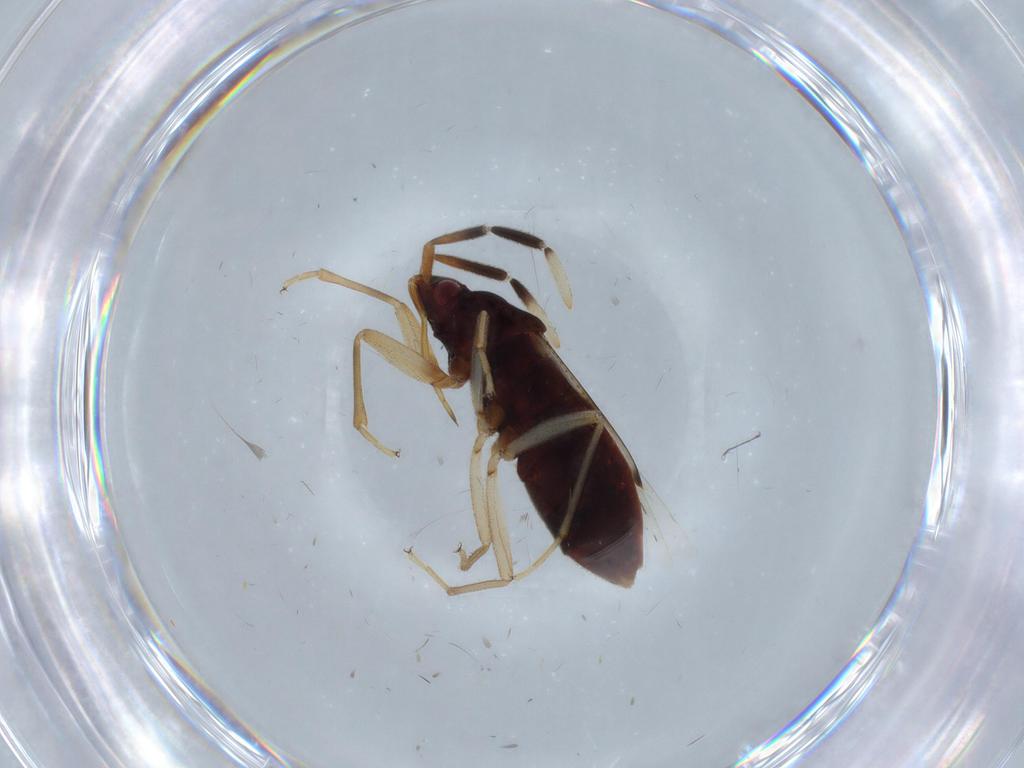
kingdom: Animalia
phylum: Arthropoda
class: Insecta
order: Hemiptera
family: Rhyparochromidae
